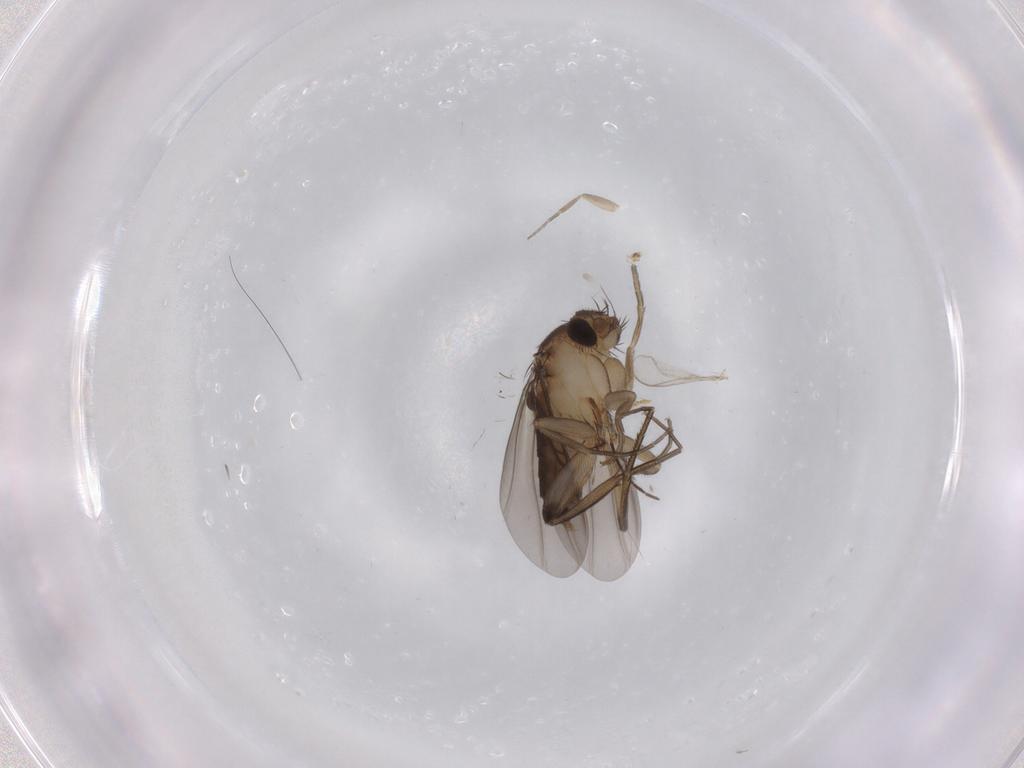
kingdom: Animalia
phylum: Arthropoda
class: Insecta
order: Diptera
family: Phoridae
